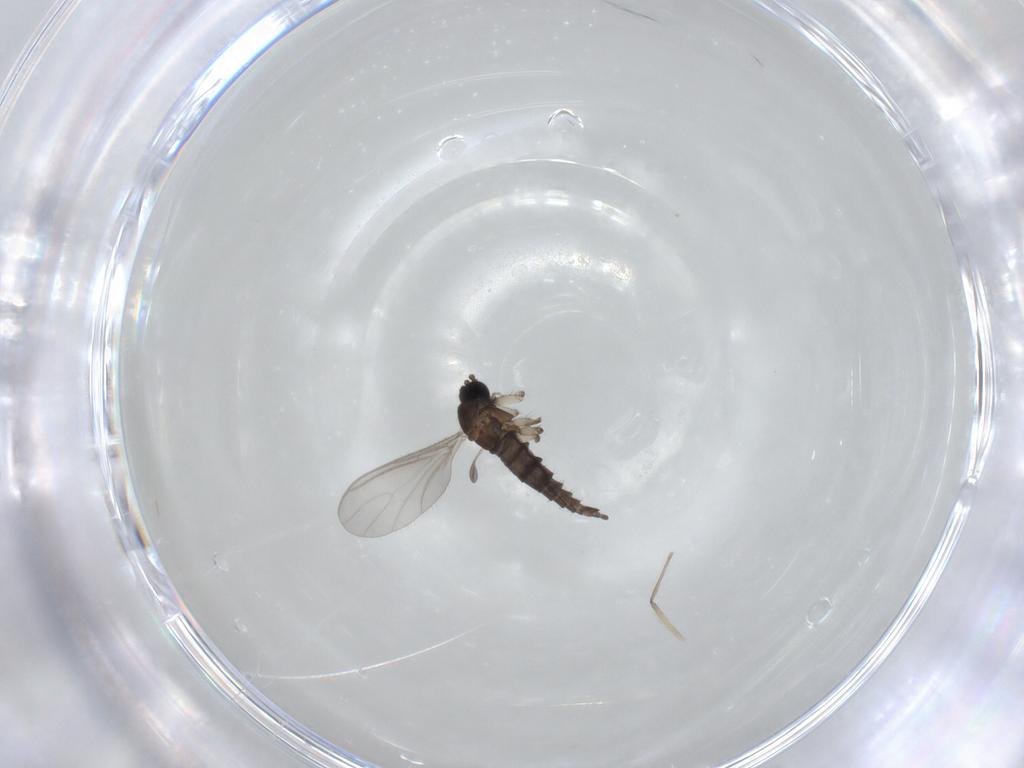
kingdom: Animalia
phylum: Arthropoda
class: Insecta
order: Diptera
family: Sciaridae
